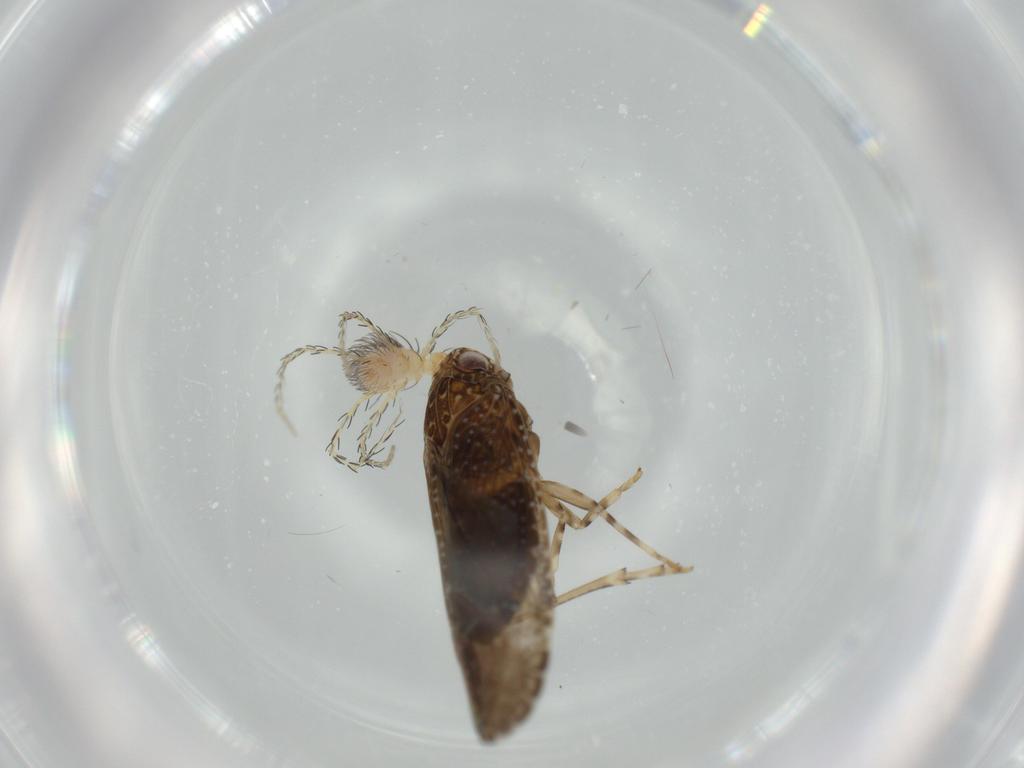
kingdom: Animalia
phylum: Arthropoda
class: Arachnida
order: Trombidiformes
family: Erythraeidae
